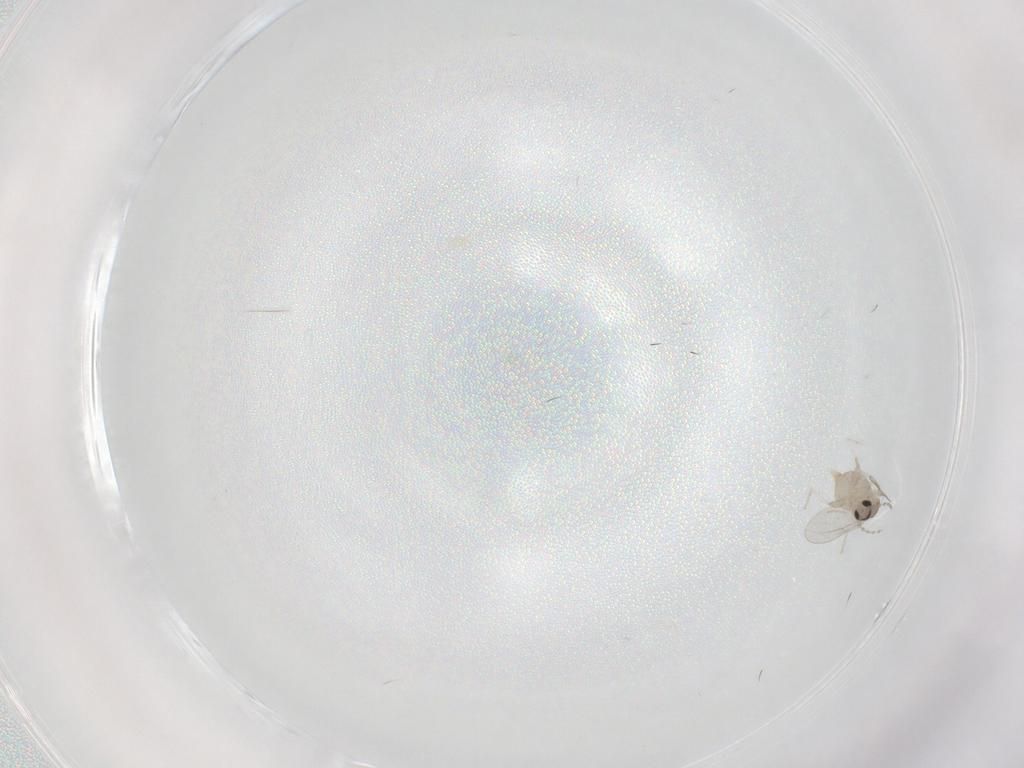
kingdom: Animalia
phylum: Arthropoda
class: Insecta
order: Diptera
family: Cecidomyiidae
